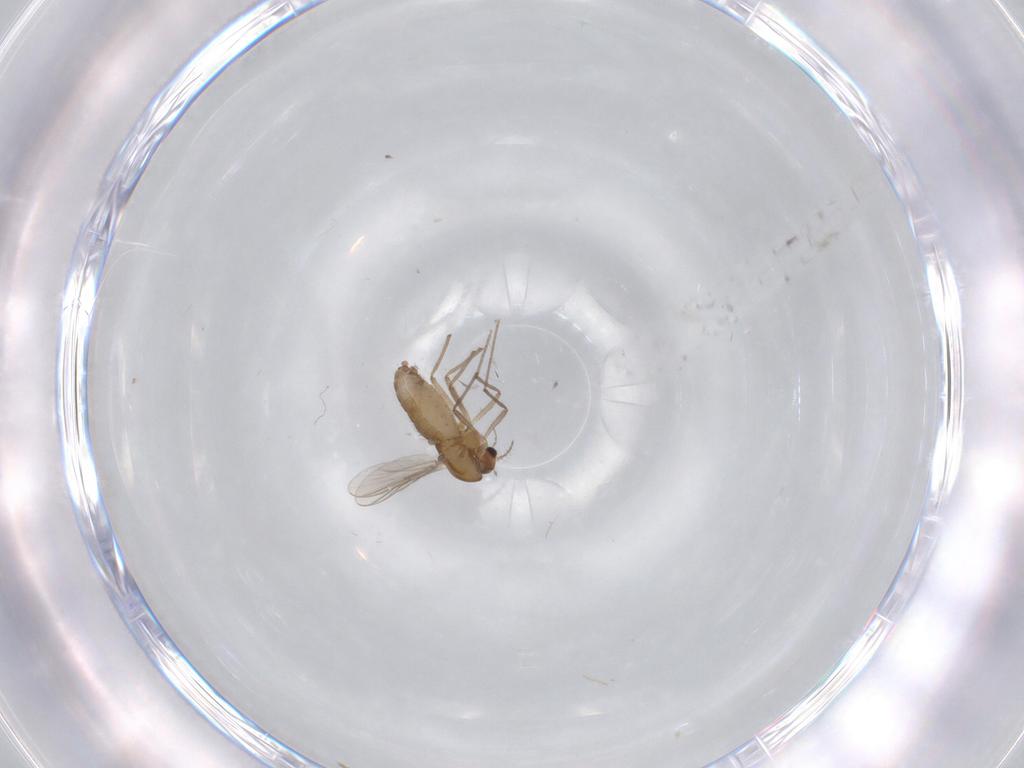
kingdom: Animalia
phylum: Arthropoda
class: Insecta
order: Diptera
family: Chironomidae
